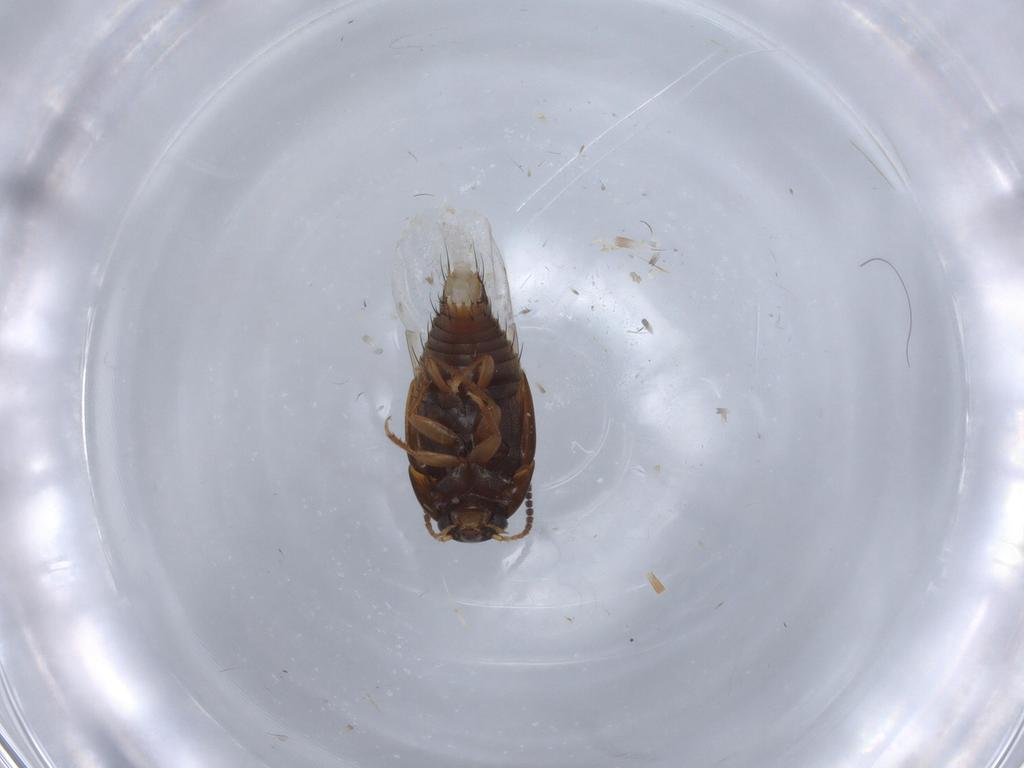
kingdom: Animalia
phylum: Arthropoda
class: Insecta
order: Coleoptera
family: Staphylinidae
